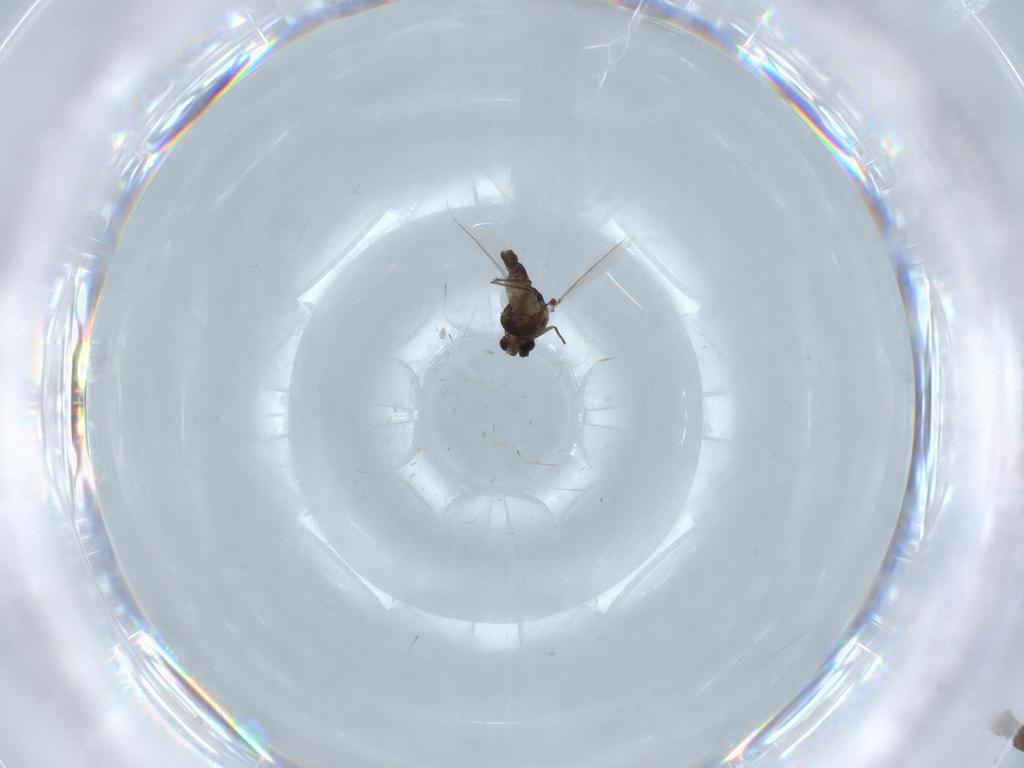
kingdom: Animalia
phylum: Arthropoda
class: Insecta
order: Diptera
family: Chironomidae
